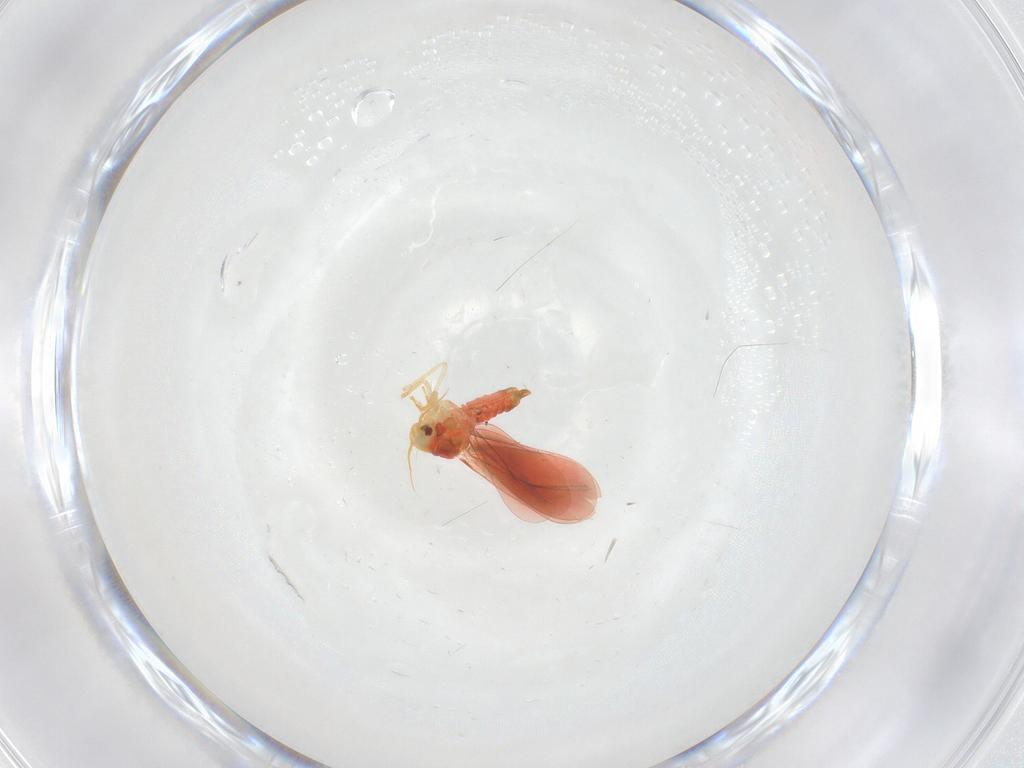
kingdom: Animalia
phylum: Arthropoda
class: Insecta
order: Hemiptera
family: Aleyrodidae
